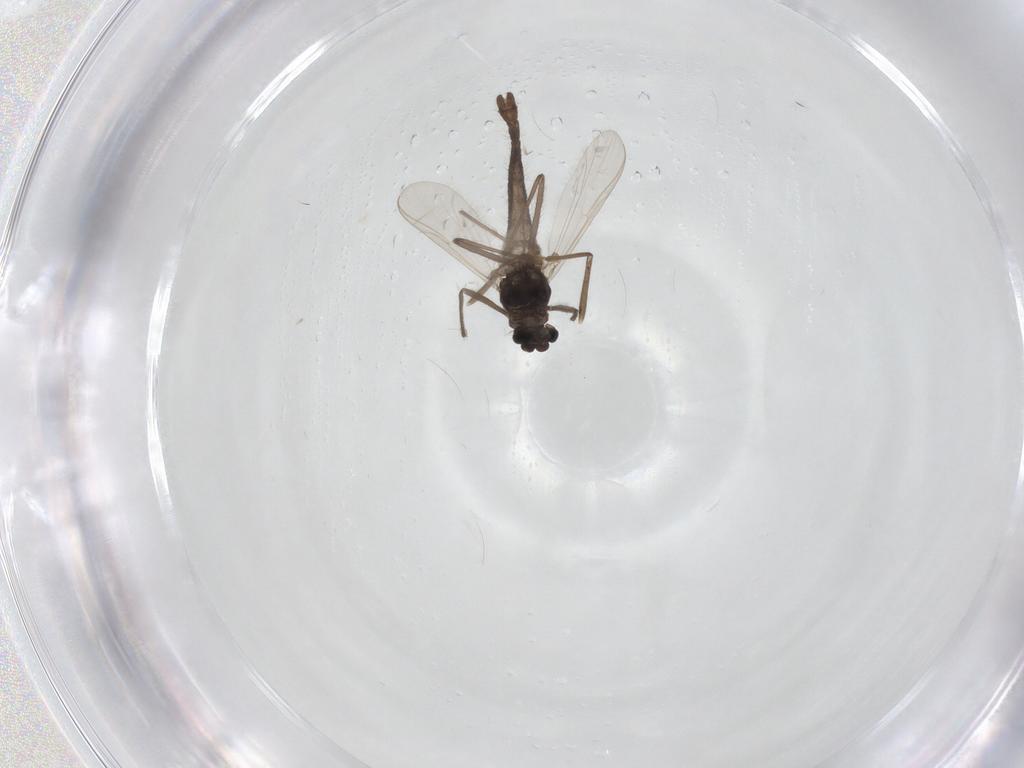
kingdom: Animalia
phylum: Arthropoda
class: Insecta
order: Diptera
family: Chironomidae
